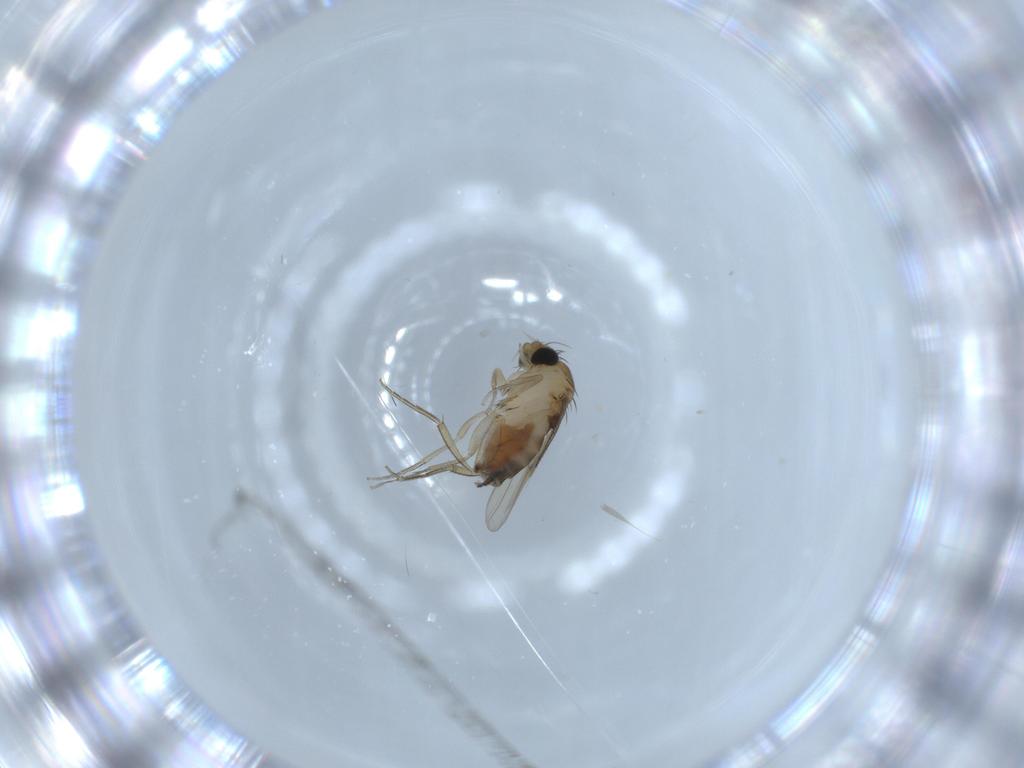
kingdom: Animalia
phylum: Arthropoda
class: Insecta
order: Diptera
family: Phoridae
